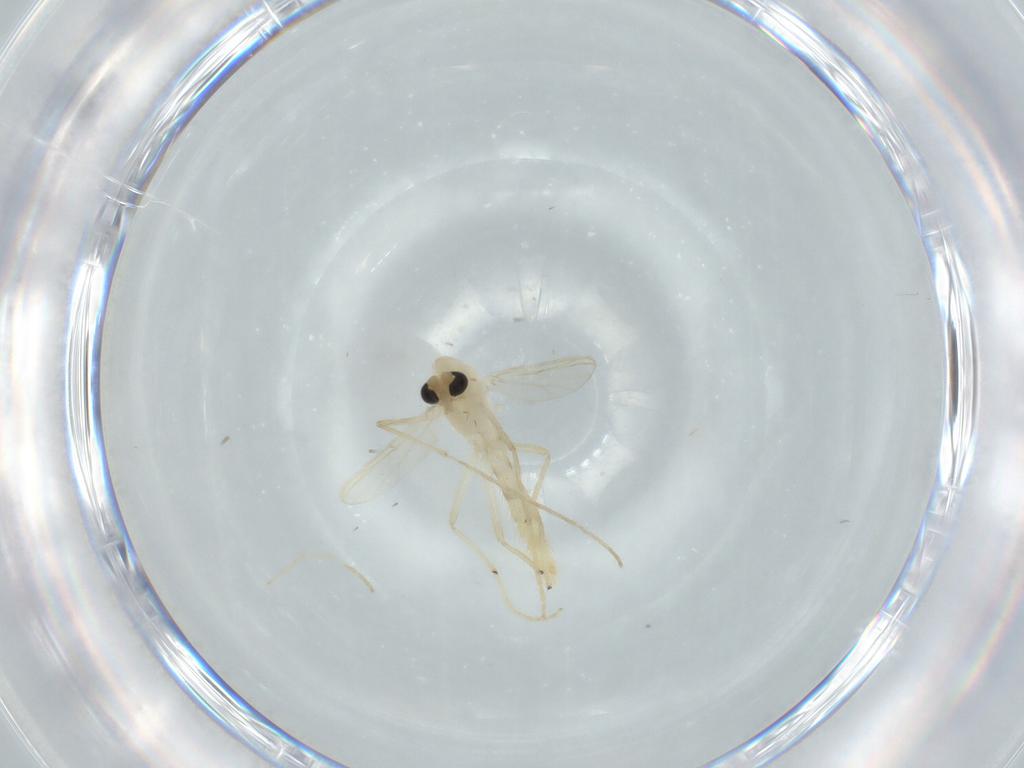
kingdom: Animalia
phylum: Arthropoda
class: Insecta
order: Diptera
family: Chironomidae
